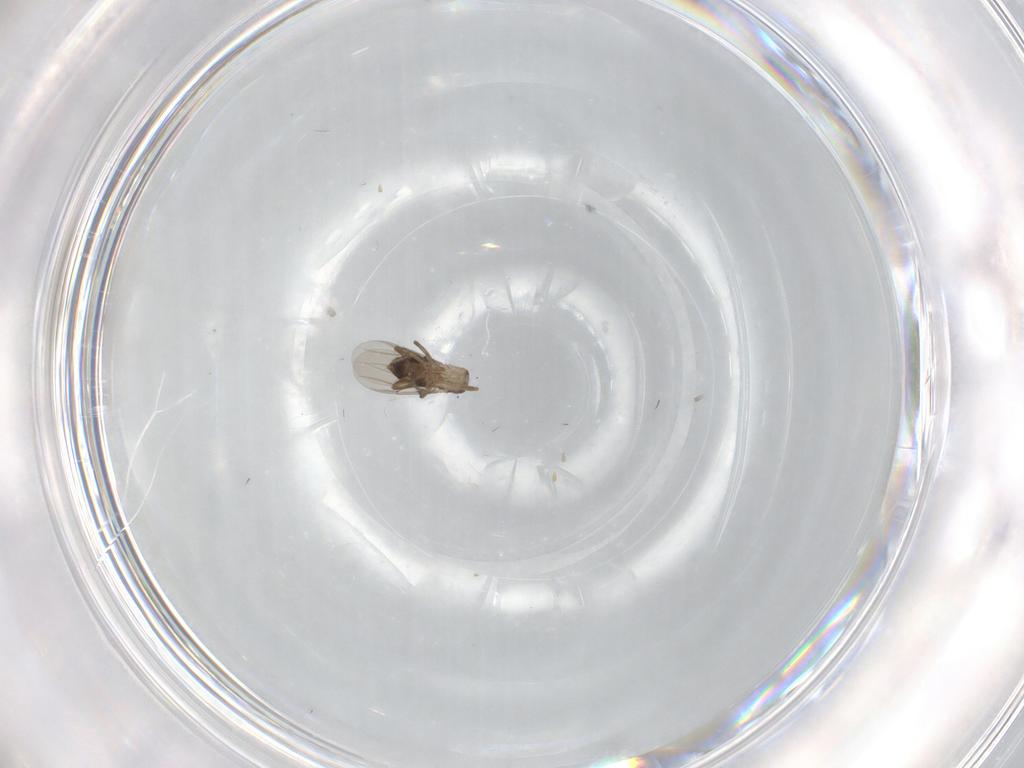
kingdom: Animalia
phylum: Arthropoda
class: Insecta
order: Diptera
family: Phoridae
